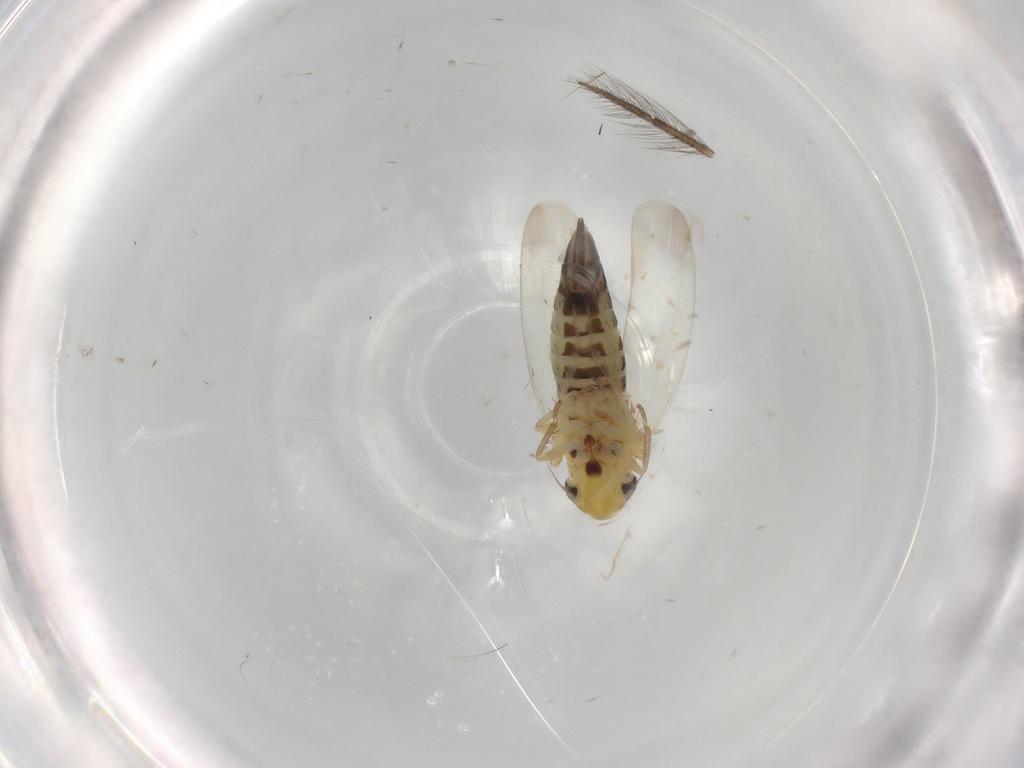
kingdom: Animalia
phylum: Arthropoda
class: Insecta
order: Hemiptera
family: Cicadellidae
